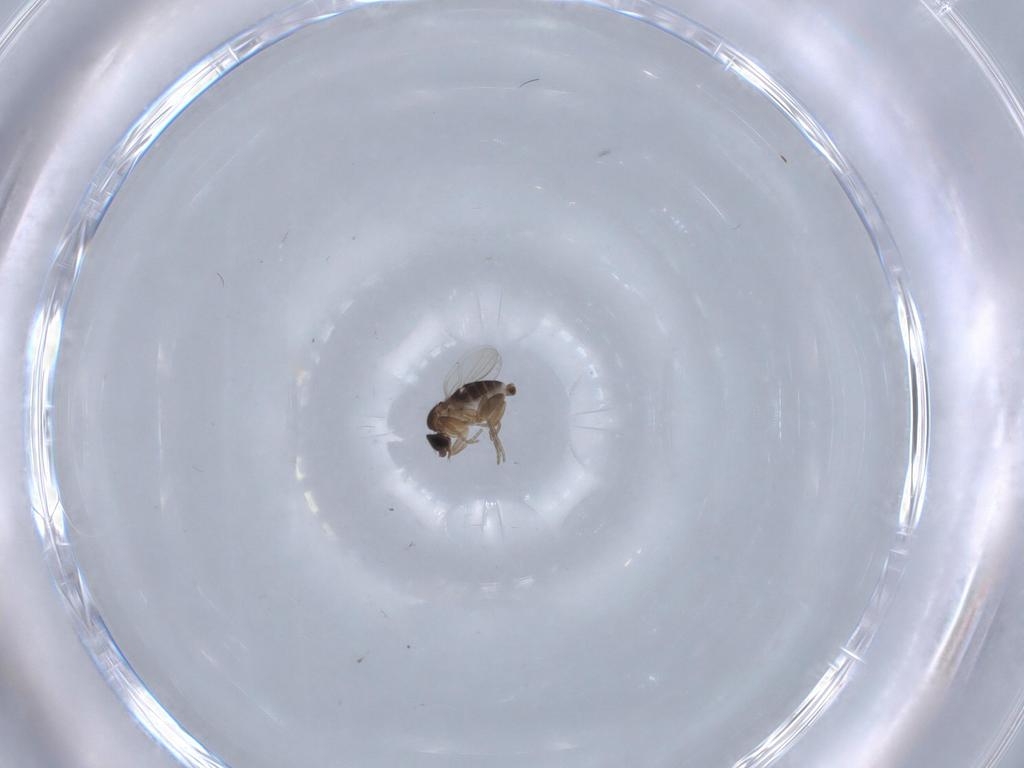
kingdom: Animalia
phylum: Arthropoda
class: Insecta
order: Diptera
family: Phoridae
